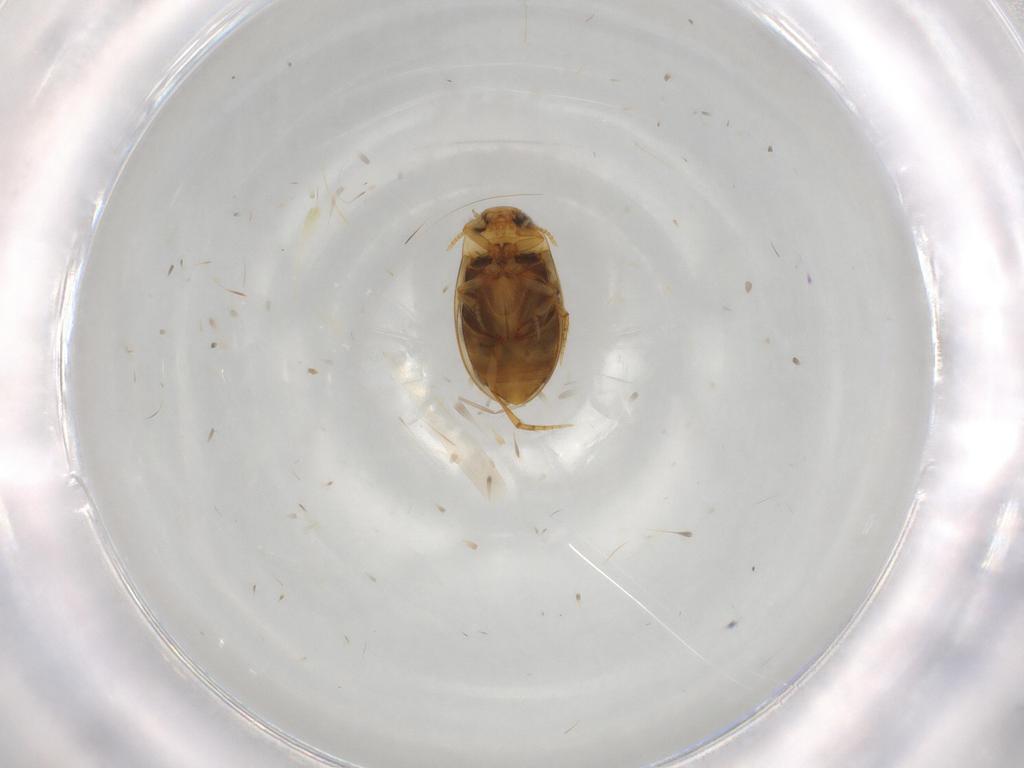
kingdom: Animalia
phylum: Arthropoda
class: Insecta
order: Coleoptera
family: Dytiscidae
